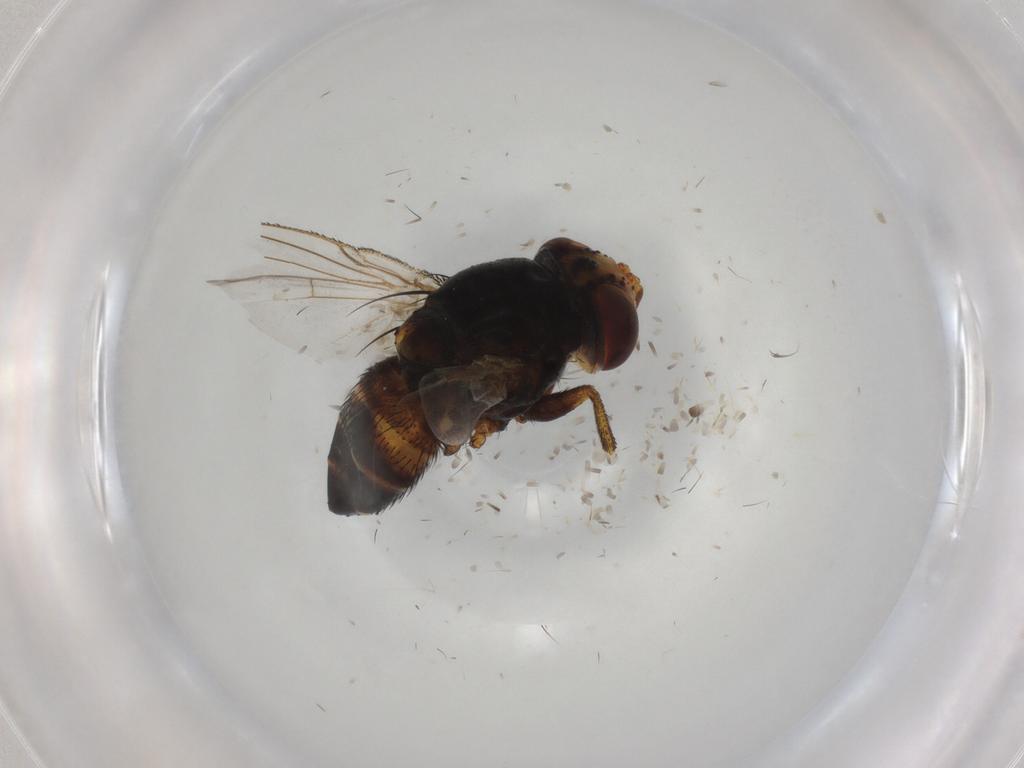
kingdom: Animalia
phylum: Arthropoda
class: Insecta
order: Diptera
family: Glossinidae
